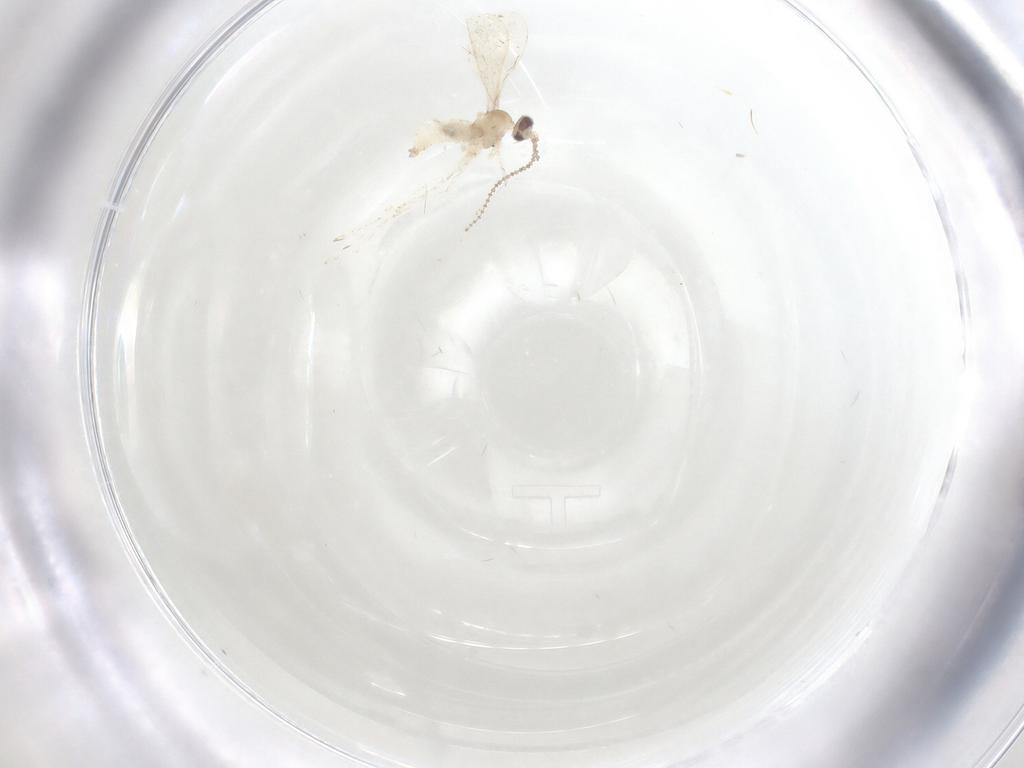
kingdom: Animalia
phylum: Arthropoda
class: Insecta
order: Diptera
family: Cecidomyiidae
